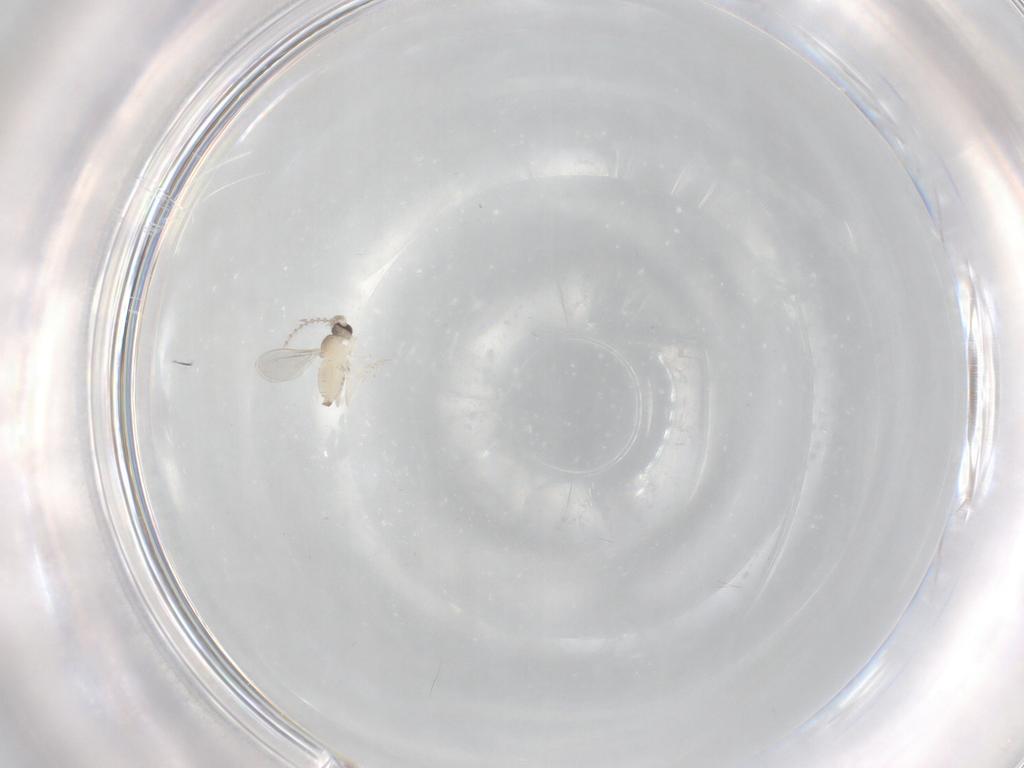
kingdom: Animalia
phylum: Arthropoda
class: Insecta
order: Diptera
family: Cecidomyiidae
